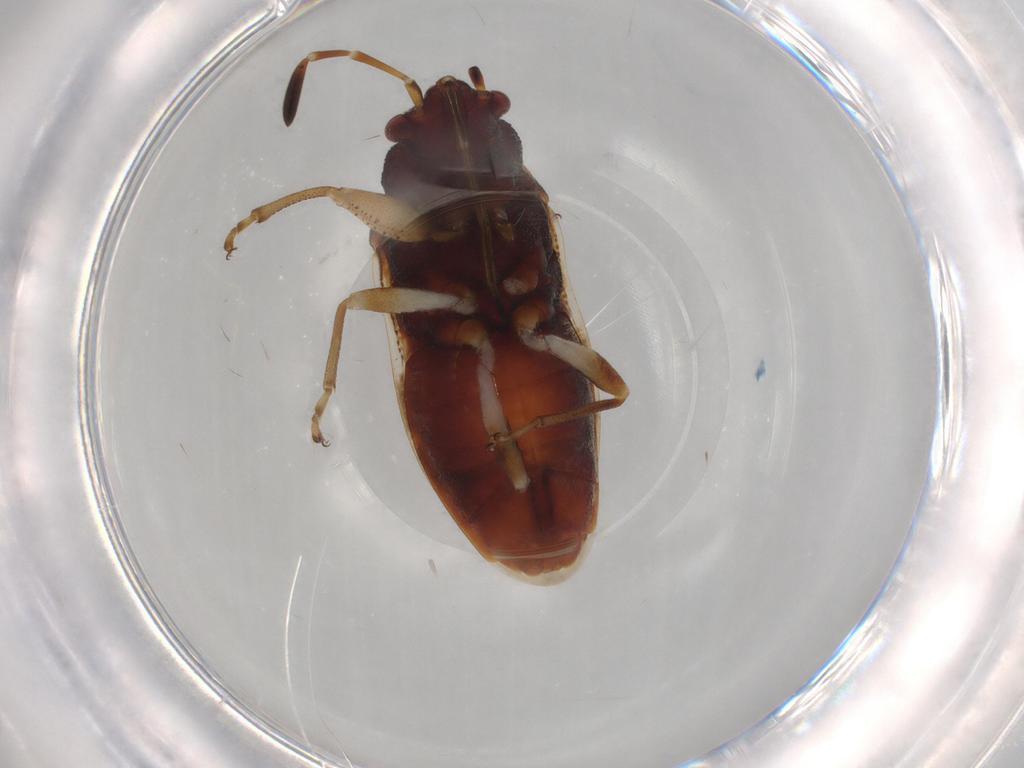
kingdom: Animalia
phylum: Arthropoda
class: Insecta
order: Hemiptera
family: Rhyparochromidae
